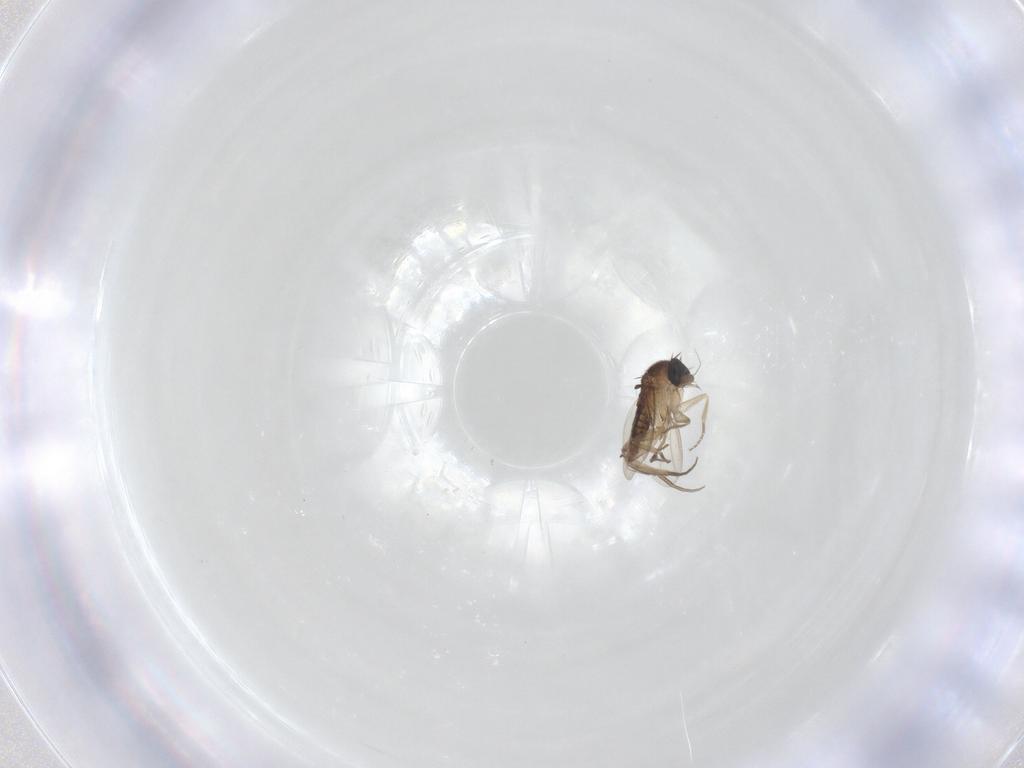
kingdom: Animalia
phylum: Arthropoda
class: Insecta
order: Diptera
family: Phoridae
